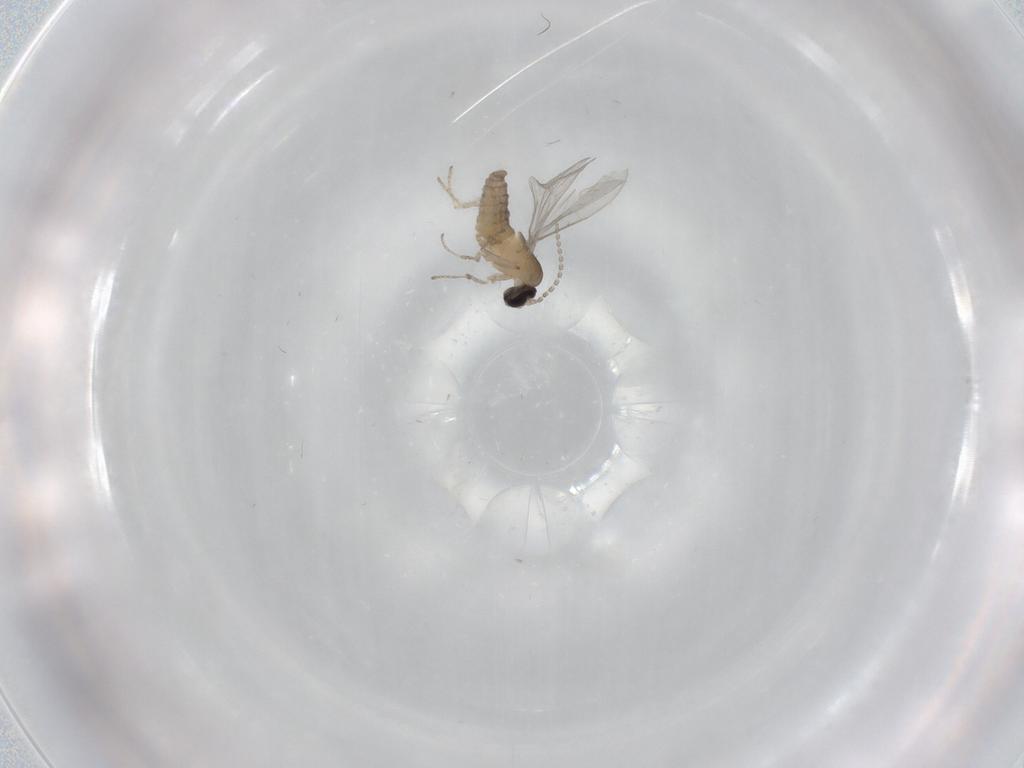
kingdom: Animalia
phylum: Arthropoda
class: Insecta
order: Diptera
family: Cecidomyiidae
